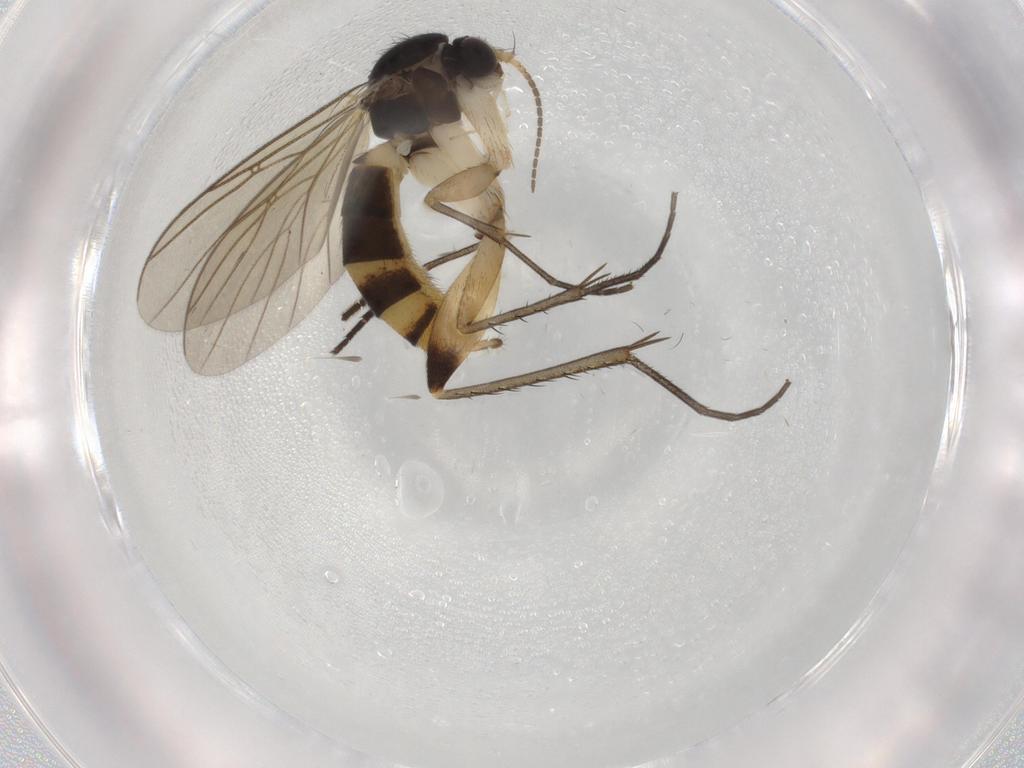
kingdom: Animalia
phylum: Arthropoda
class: Insecta
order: Diptera
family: Mycetophilidae
